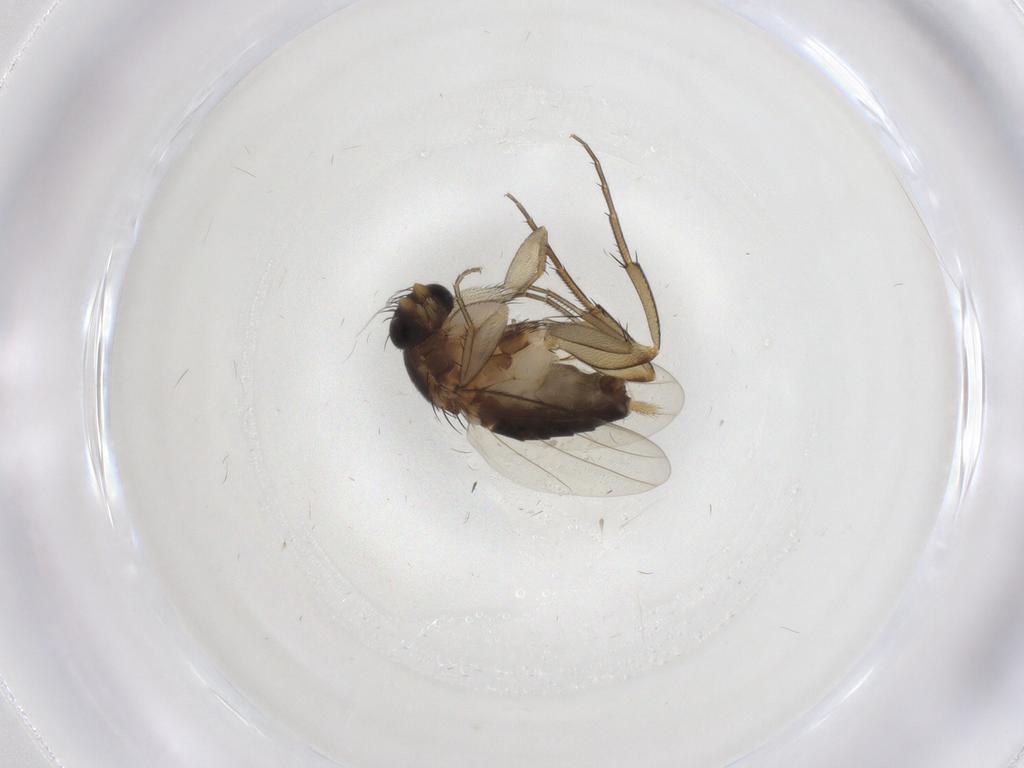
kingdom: Animalia
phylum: Arthropoda
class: Insecta
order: Diptera
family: Phoridae
